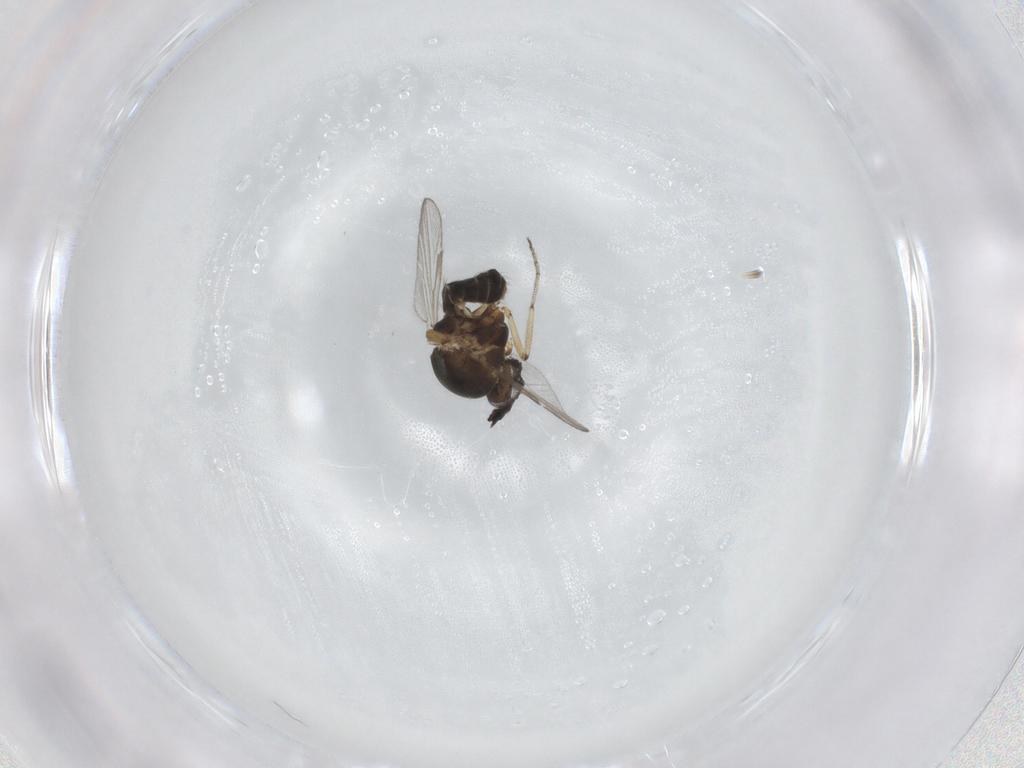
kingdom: Animalia
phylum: Arthropoda
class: Insecta
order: Diptera
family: Ceratopogonidae
